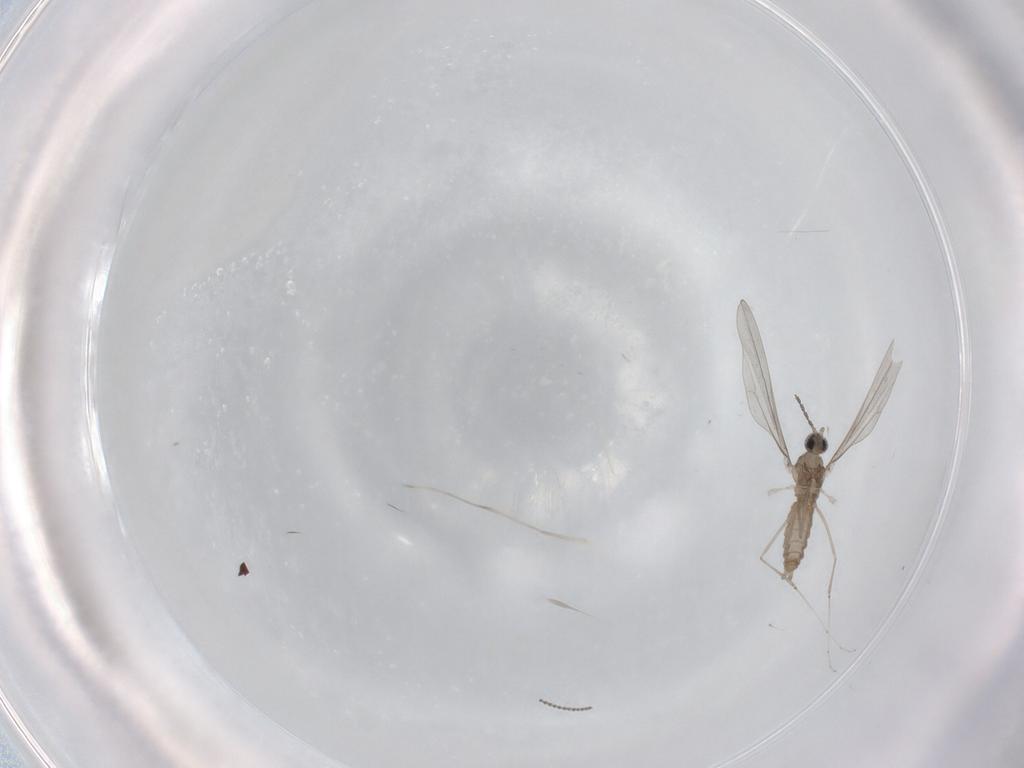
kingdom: Animalia
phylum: Arthropoda
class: Insecta
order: Diptera
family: Cecidomyiidae
